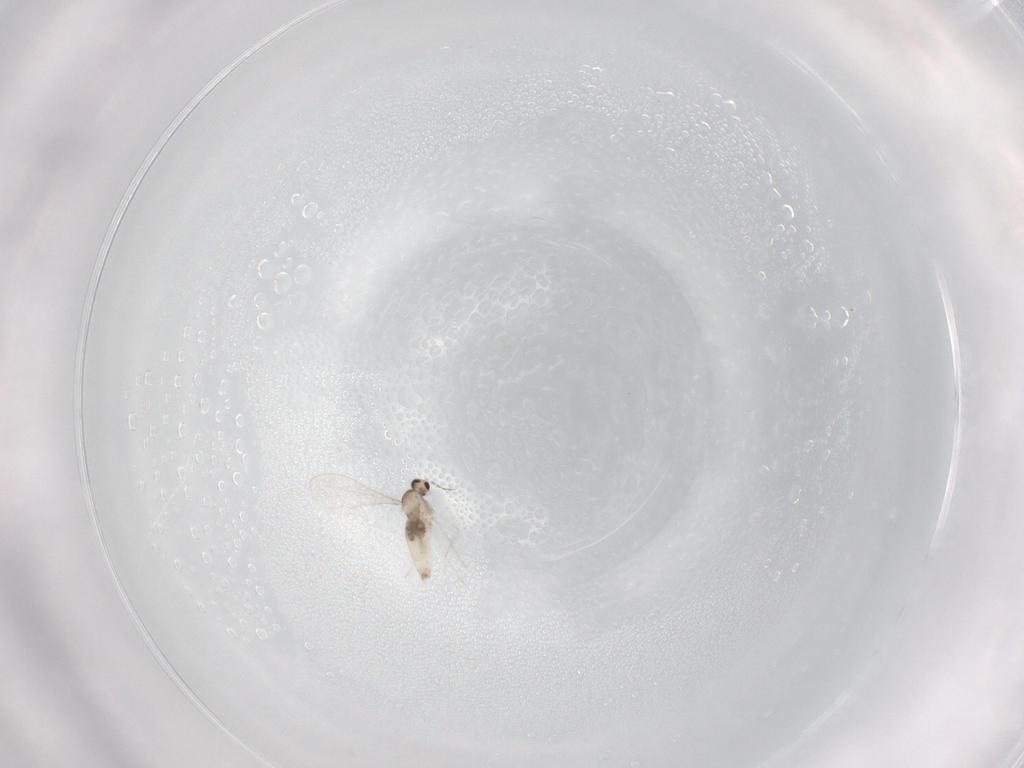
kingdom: Animalia
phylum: Arthropoda
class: Insecta
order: Diptera
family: Cecidomyiidae
